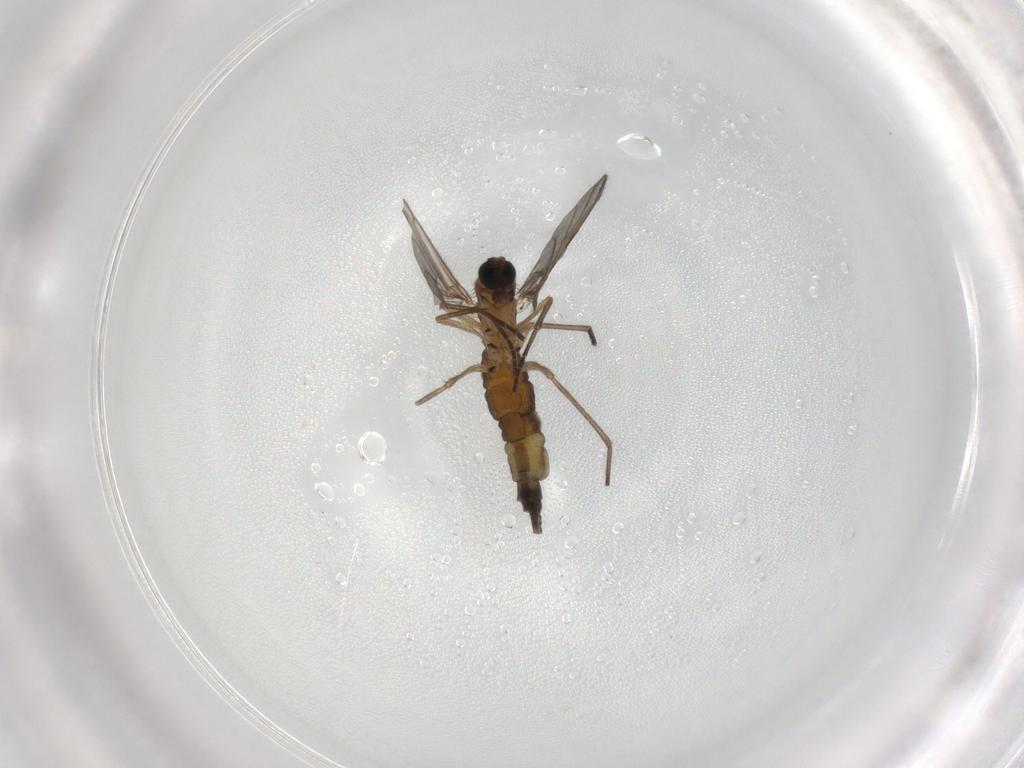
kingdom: Animalia
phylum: Arthropoda
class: Insecta
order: Diptera
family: Sciaridae
